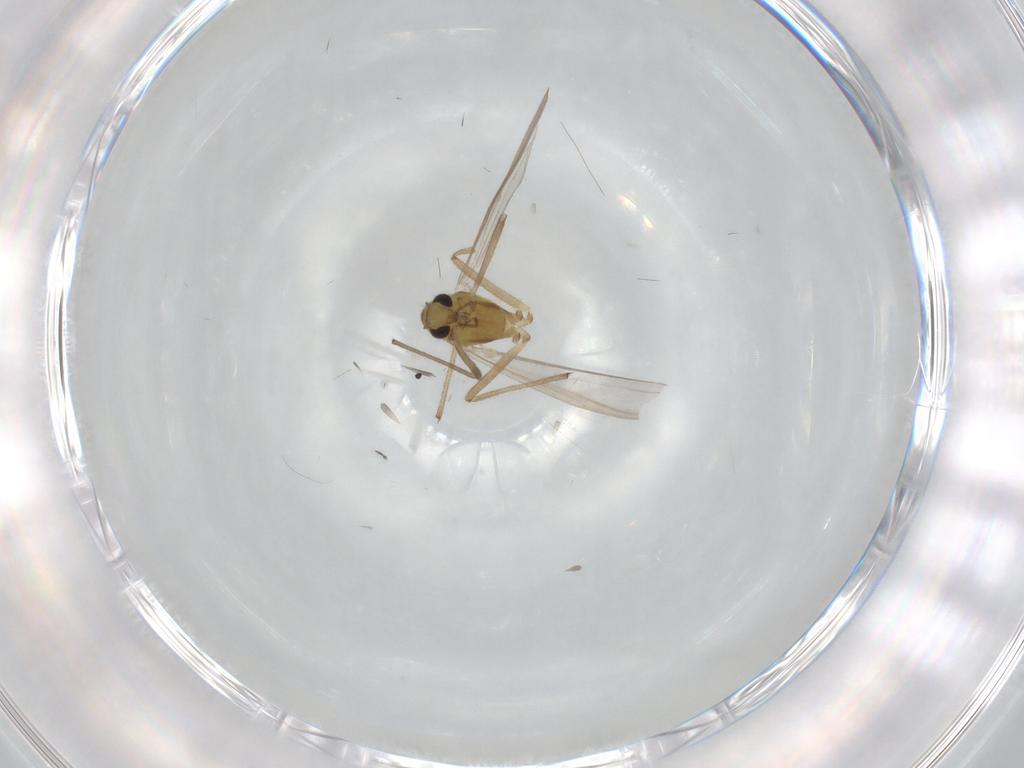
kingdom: Animalia
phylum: Arthropoda
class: Insecta
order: Diptera
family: Chironomidae
